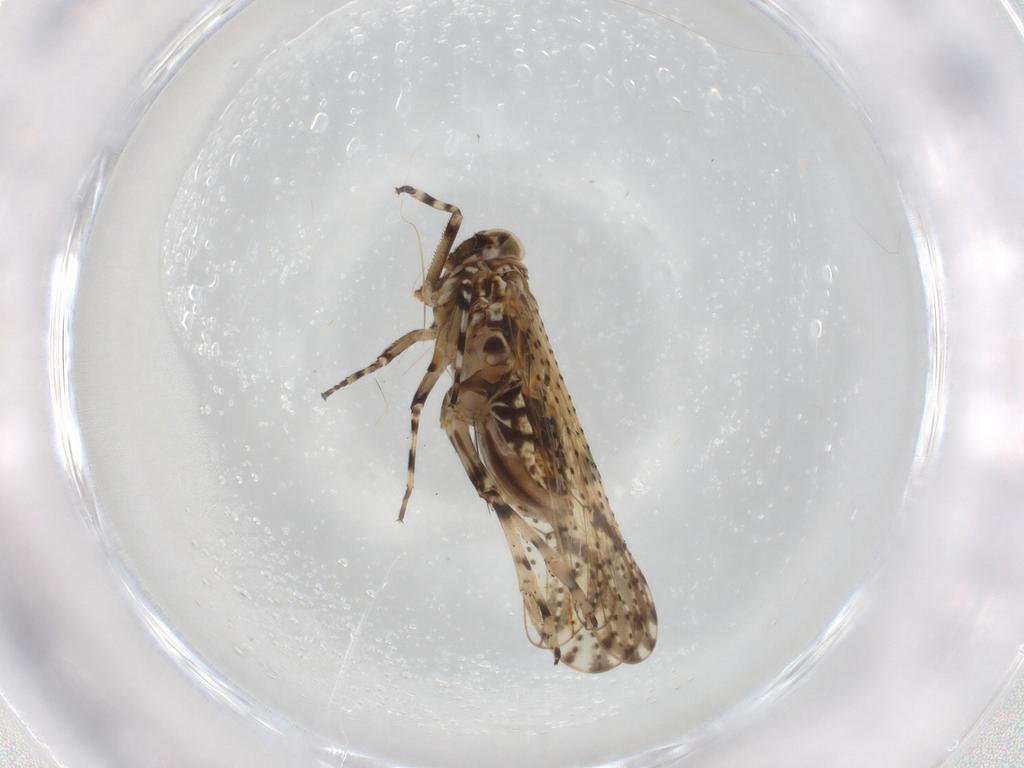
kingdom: Animalia
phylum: Arthropoda
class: Insecta
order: Hemiptera
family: Delphacidae
